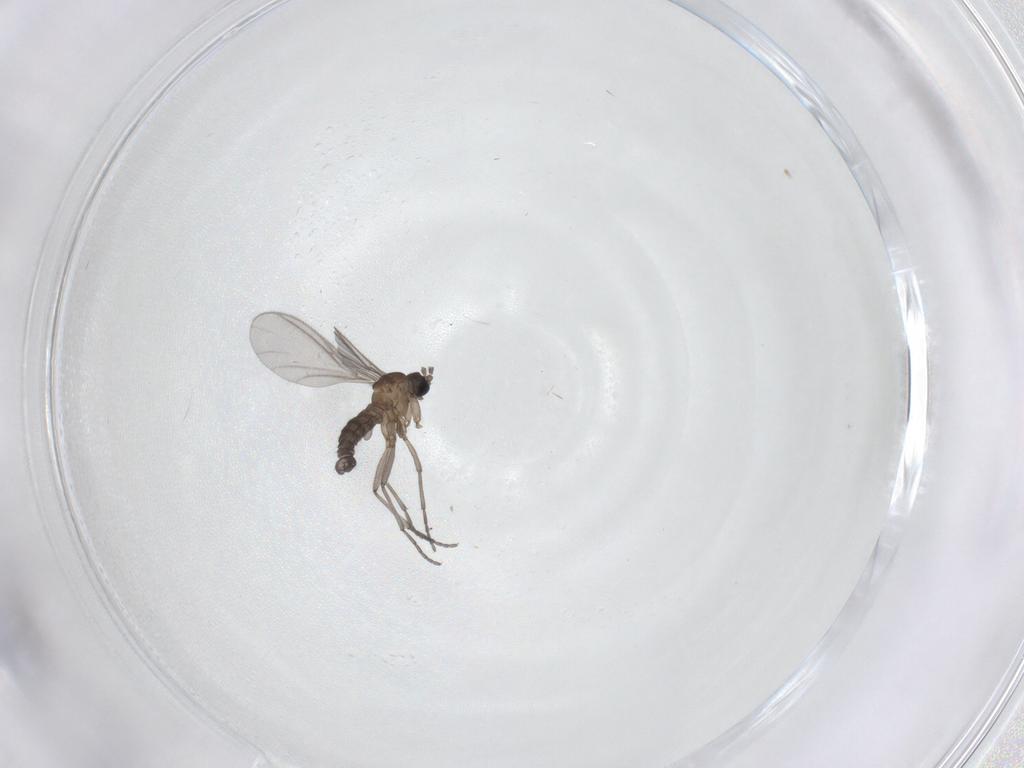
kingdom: Animalia
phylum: Arthropoda
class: Insecta
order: Diptera
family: Sciaridae
